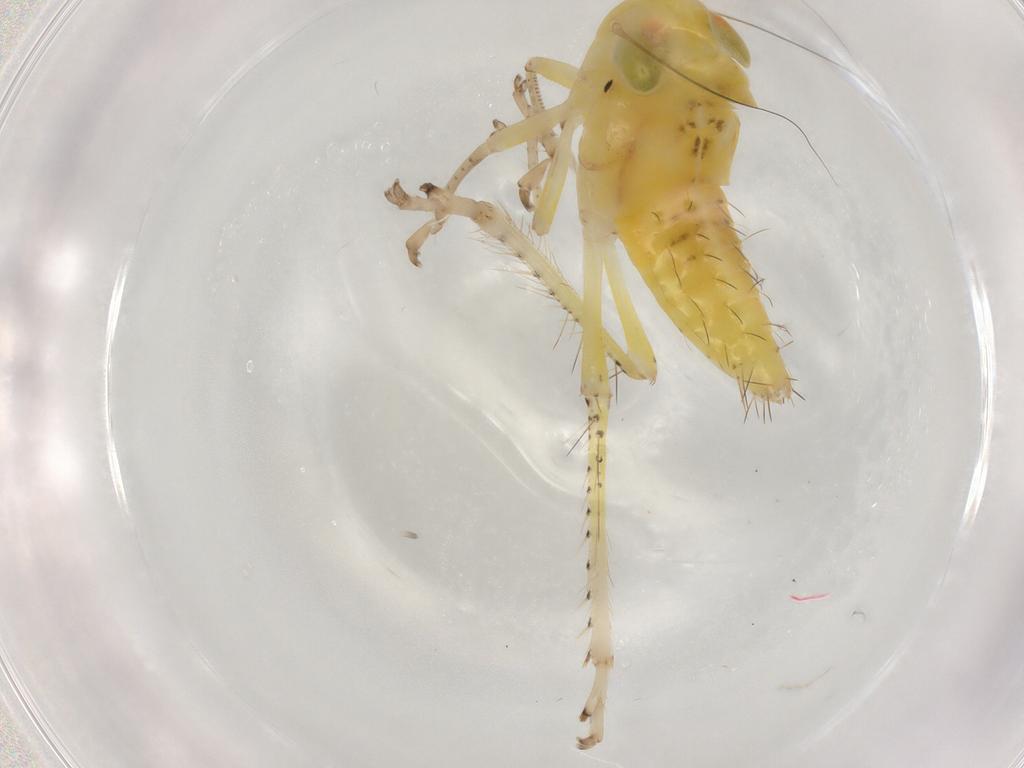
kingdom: Animalia
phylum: Arthropoda
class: Insecta
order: Hemiptera
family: Cicadellidae
